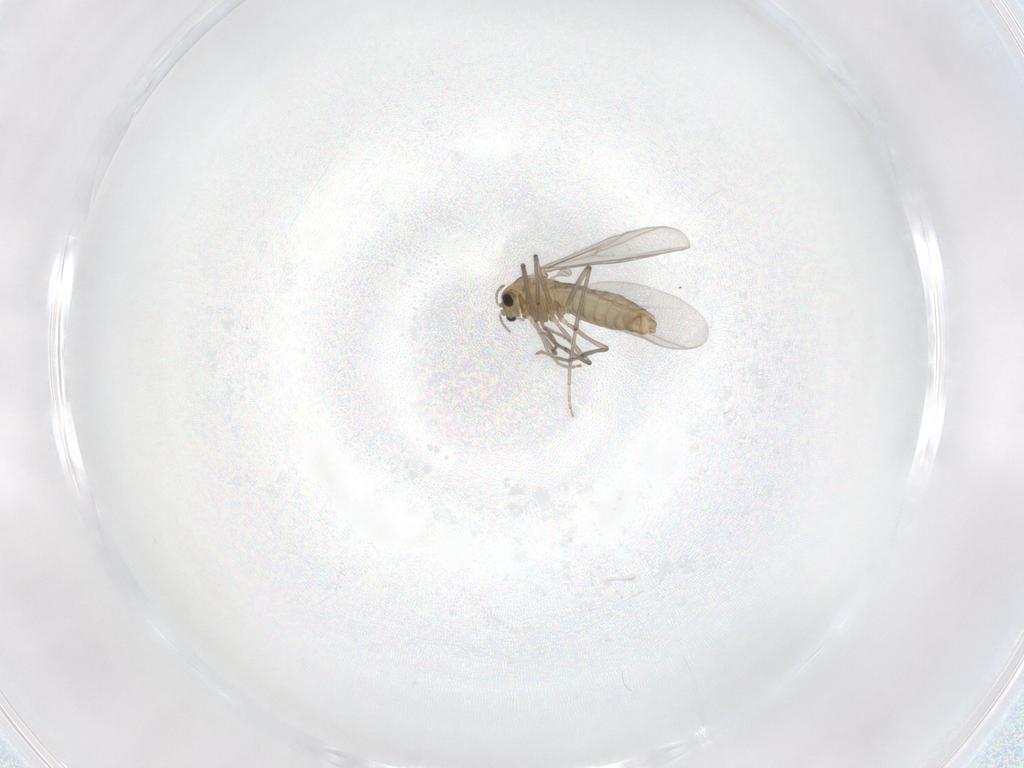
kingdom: Animalia
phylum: Arthropoda
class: Insecta
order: Diptera
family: Chironomidae
